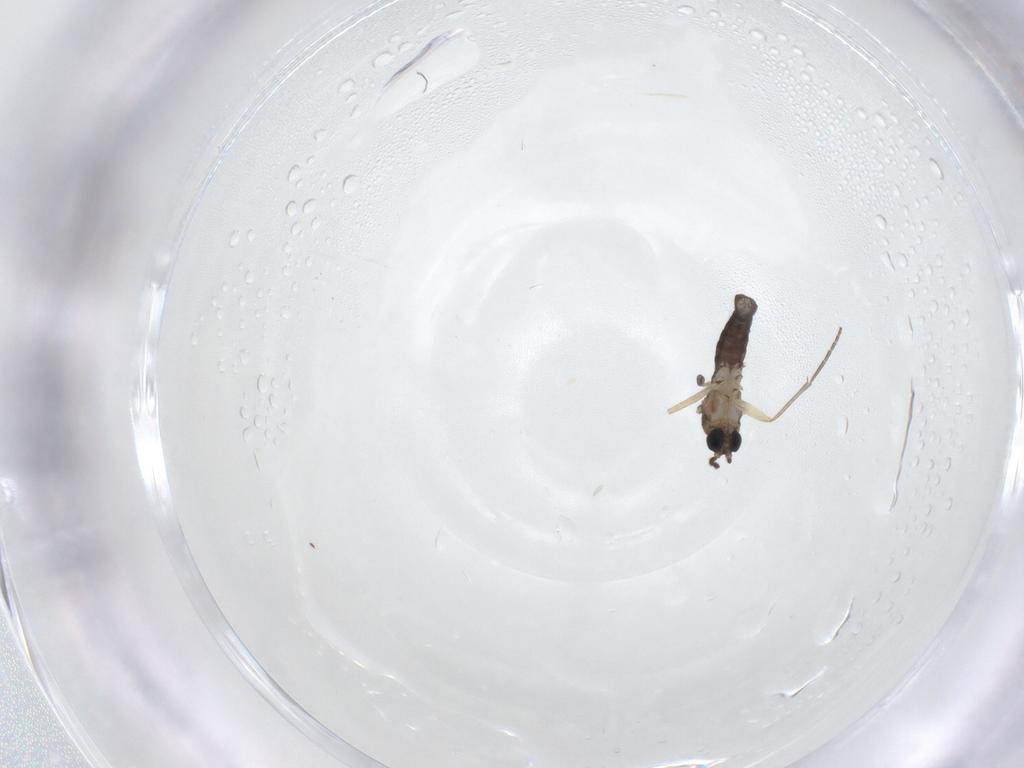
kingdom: Animalia
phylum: Arthropoda
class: Insecta
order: Diptera
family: Sciaridae
